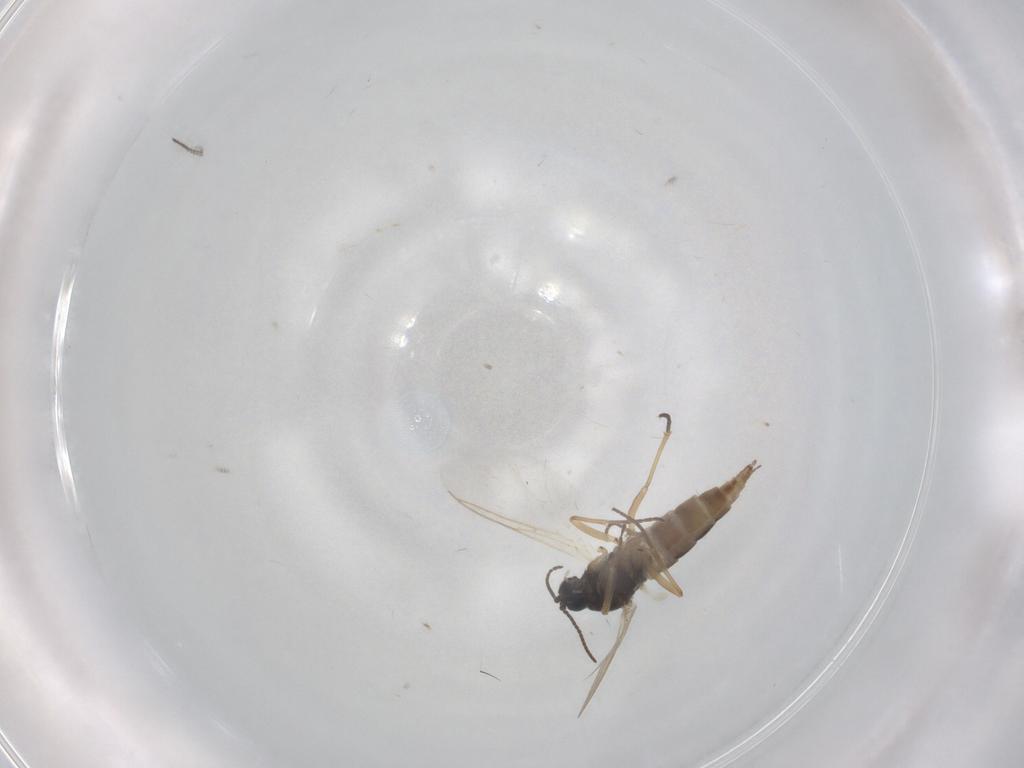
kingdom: Animalia
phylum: Arthropoda
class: Insecta
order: Diptera
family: Sciaridae
